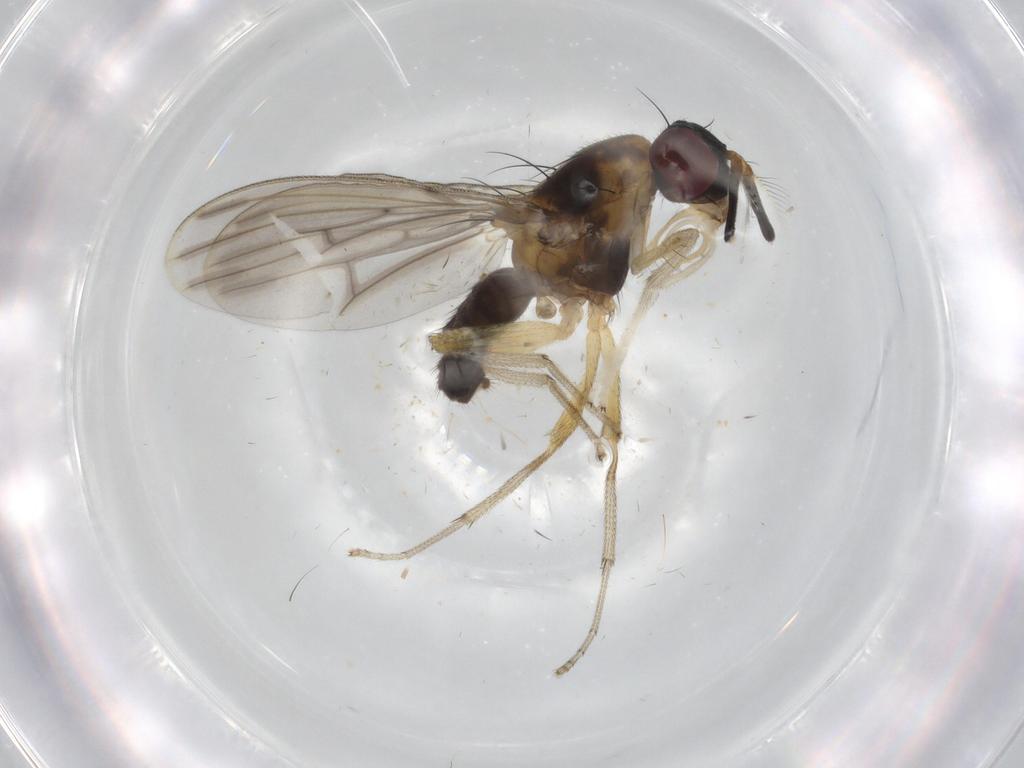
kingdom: Animalia
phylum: Arthropoda
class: Insecta
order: Diptera
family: Lauxaniidae
